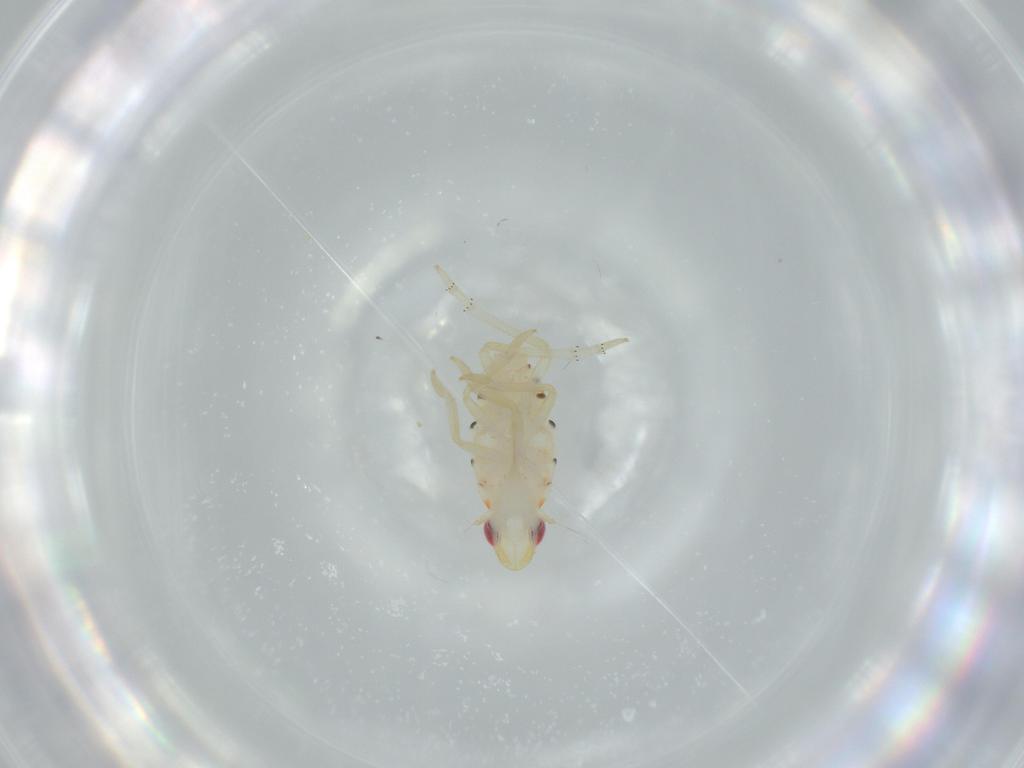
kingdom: Animalia
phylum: Arthropoda
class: Insecta
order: Hemiptera
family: Tropiduchidae
